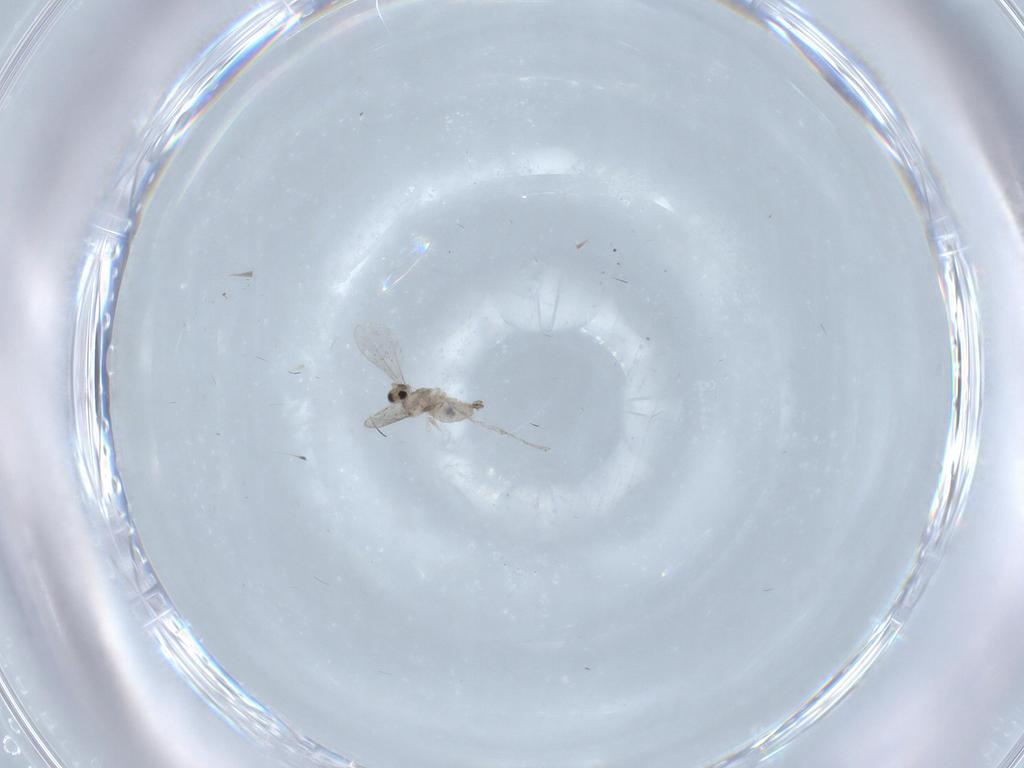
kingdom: Animalia
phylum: Arthropoda
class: Insecta
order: Diptera
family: Cecidomyiidae
